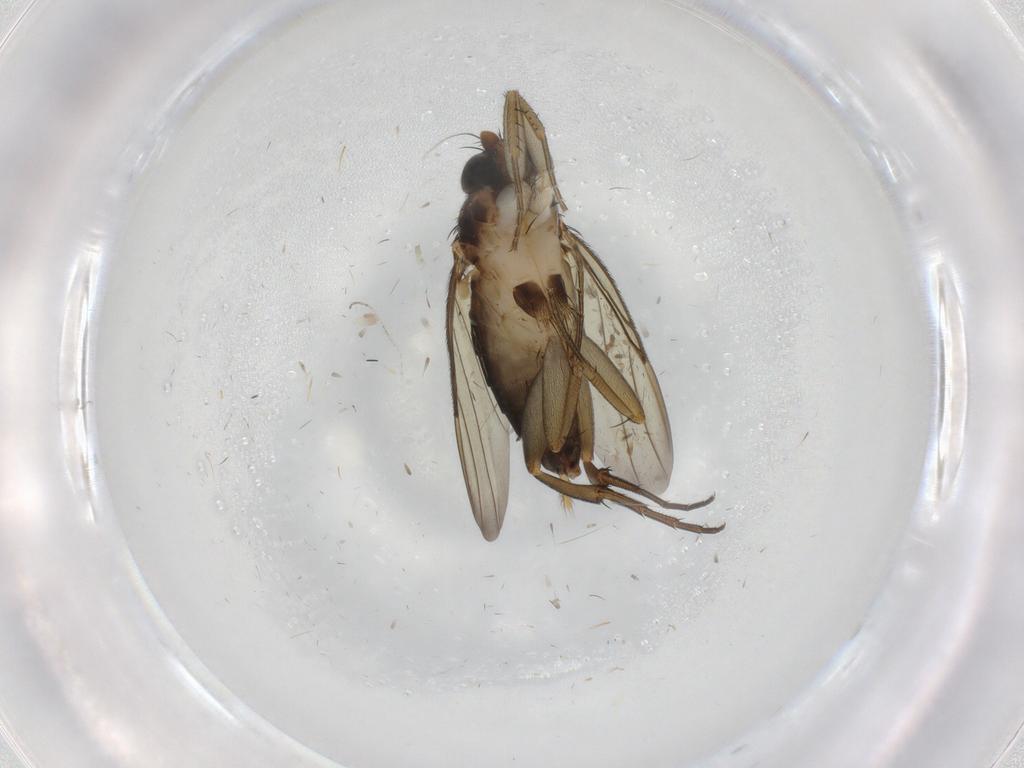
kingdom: Animalia
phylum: Arthropoda
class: Insecta
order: Diptera
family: Phoridae
